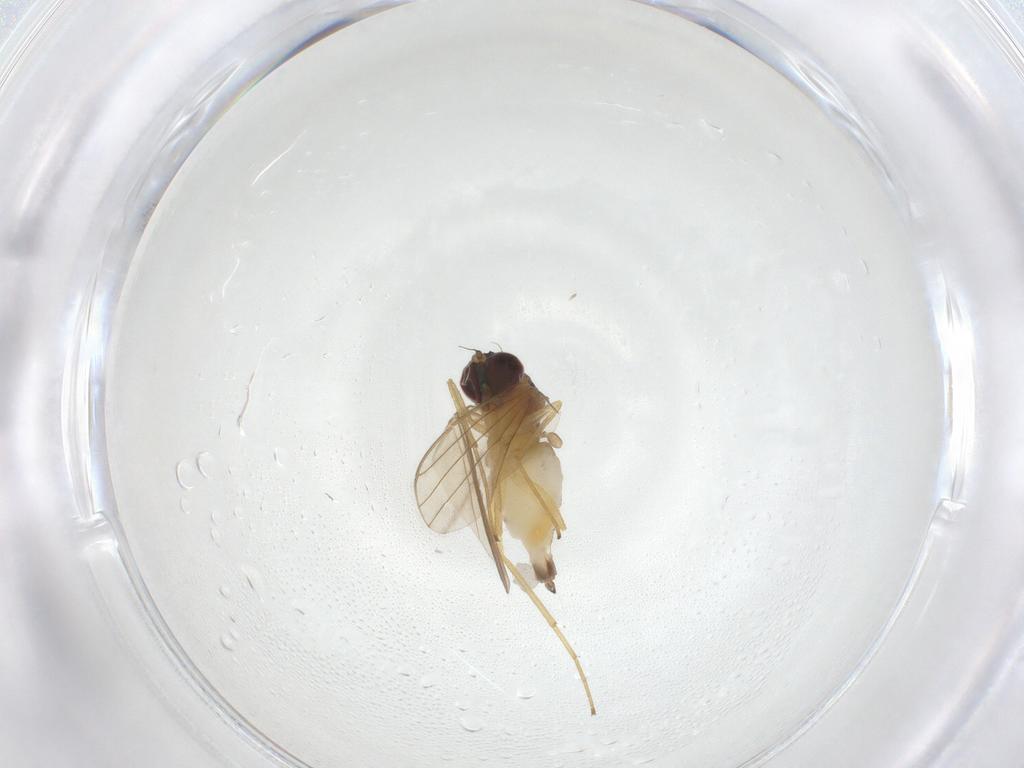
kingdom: Animalia
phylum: Arthropoda
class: Insecta
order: Diptera
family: Dolichopodidae
